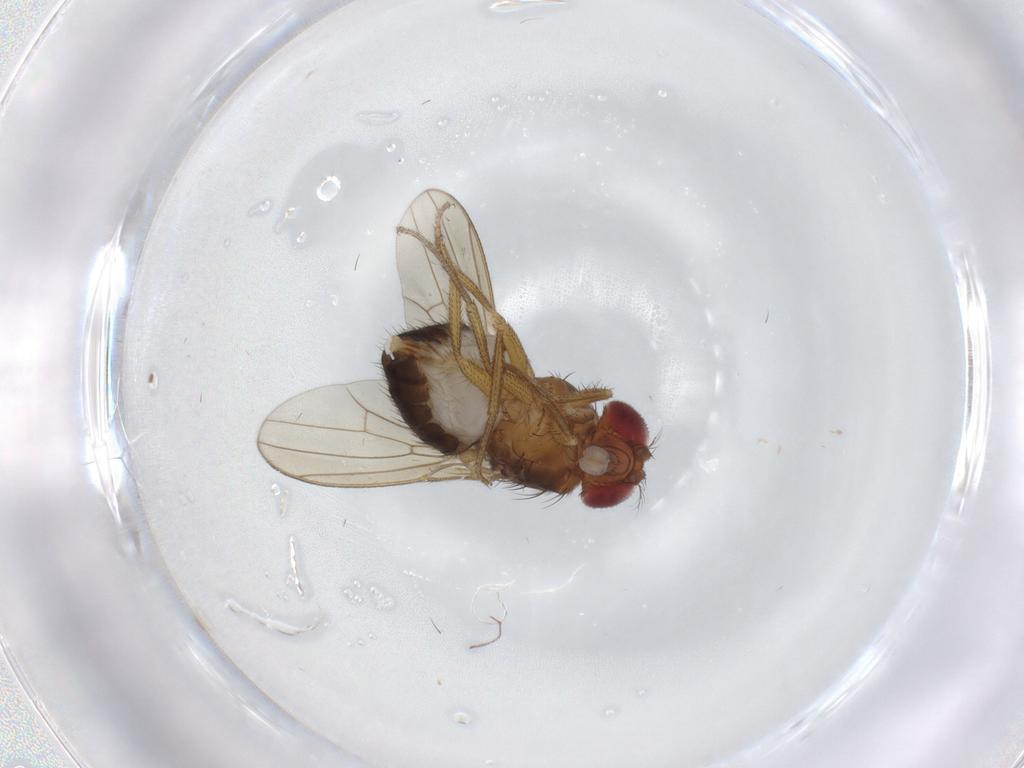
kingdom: Animalia
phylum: Arthropoda
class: Insecta
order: Diptera
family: Drosophilidae
